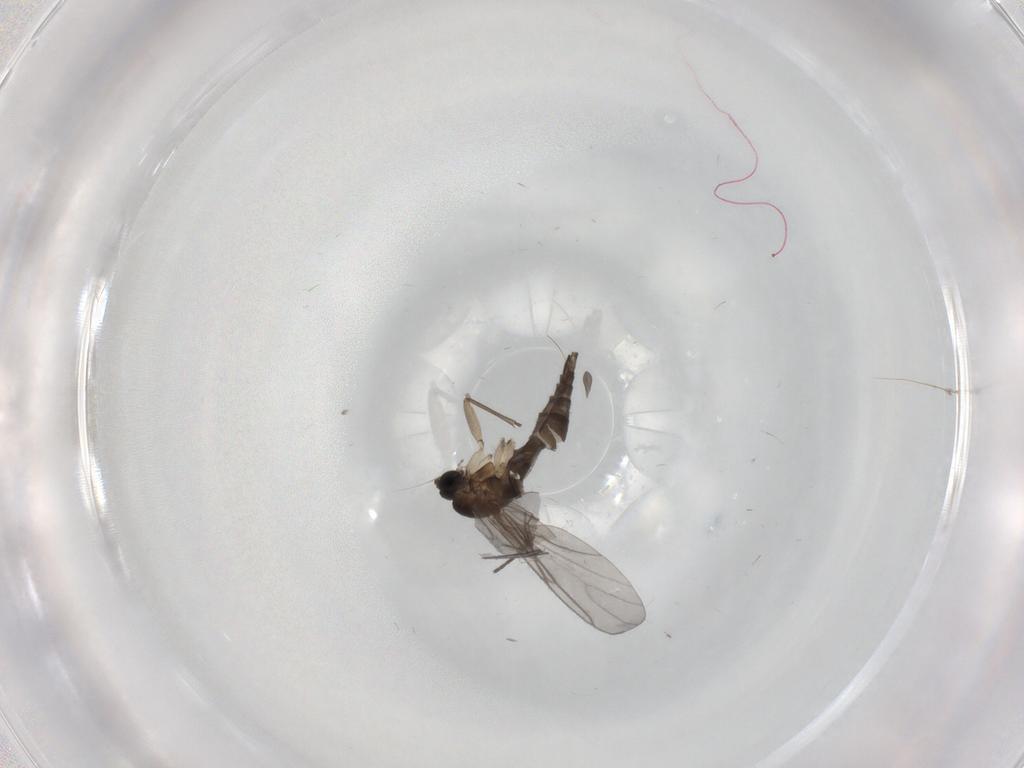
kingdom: Animalia
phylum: Arthropoda
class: Insecta
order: Diptera
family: Sciaridae
